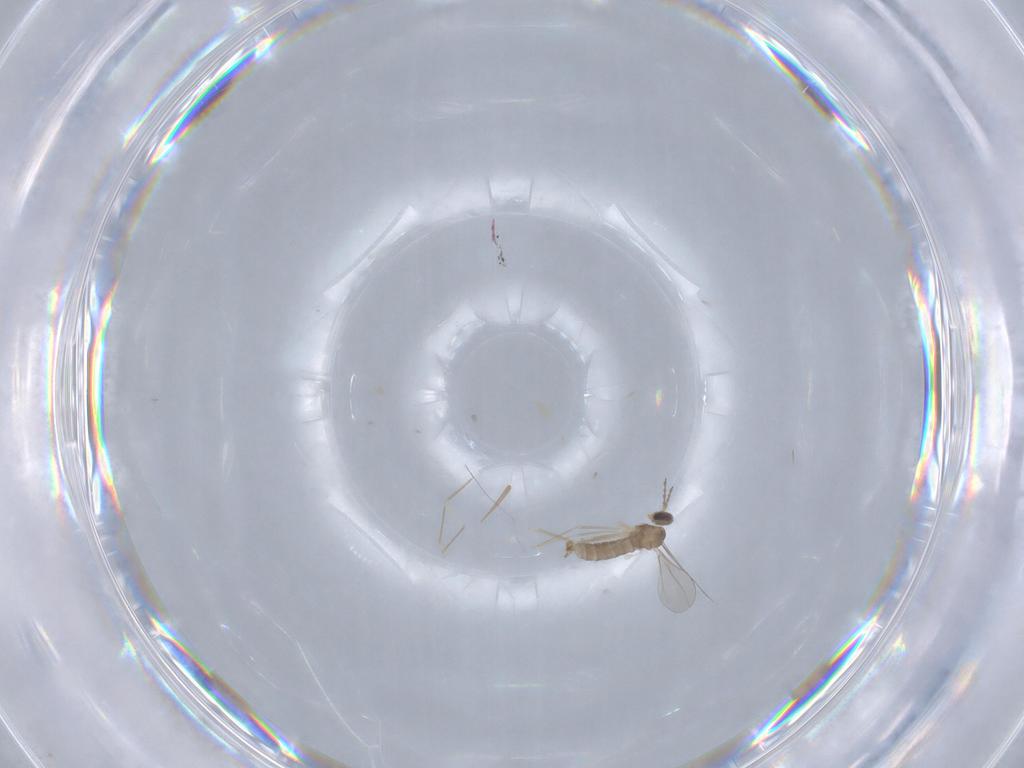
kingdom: Animalia
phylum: Arthropoda
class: Insecta
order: Diptera
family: Cecidomyiidae
